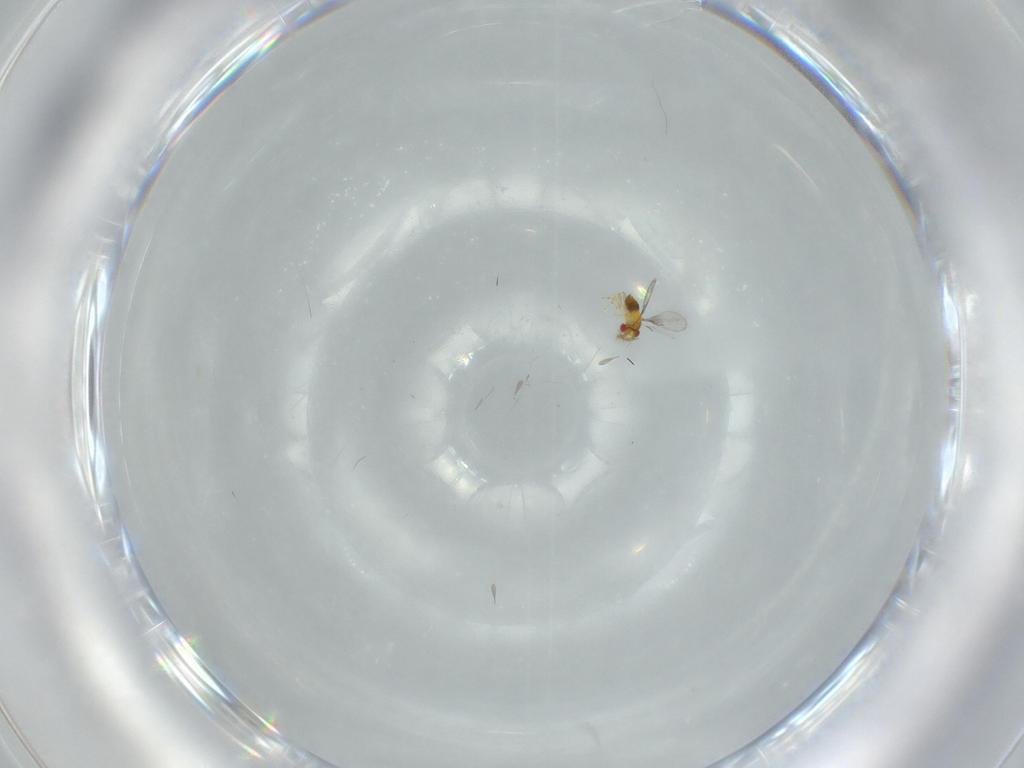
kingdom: Animalia
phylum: Arthropoda
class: Insecta
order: Hymenoptera
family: Trichogrammatidae
